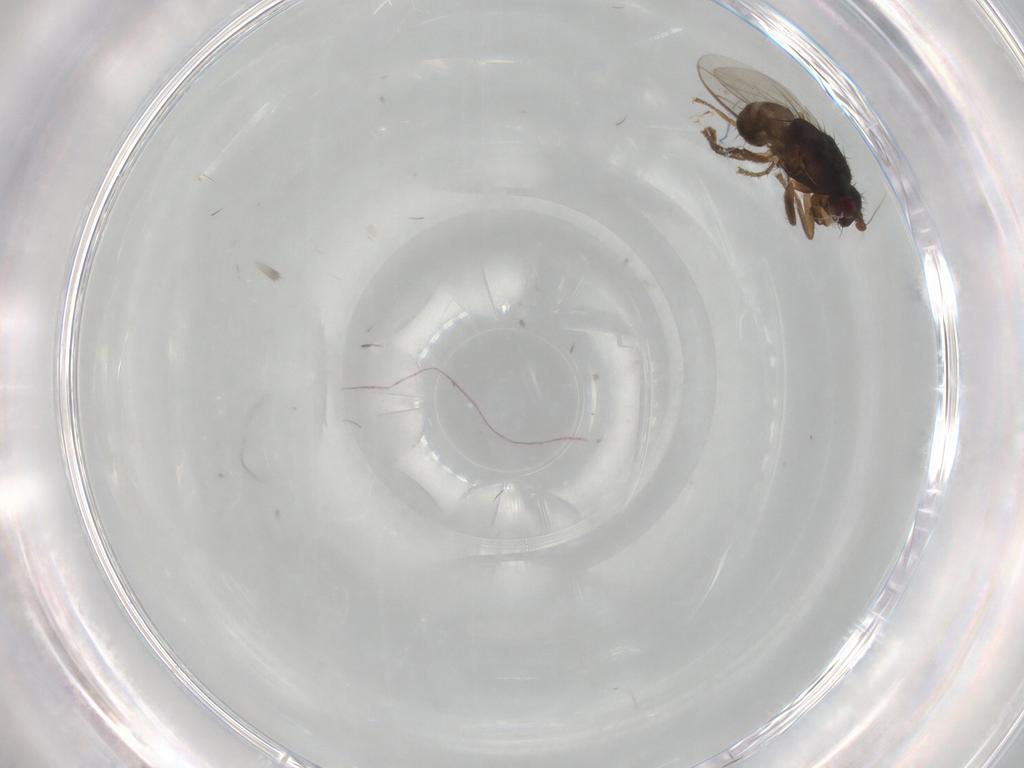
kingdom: Animalia
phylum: Arthropoda
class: Insecta
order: Diptera
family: Sphaeroceridae
